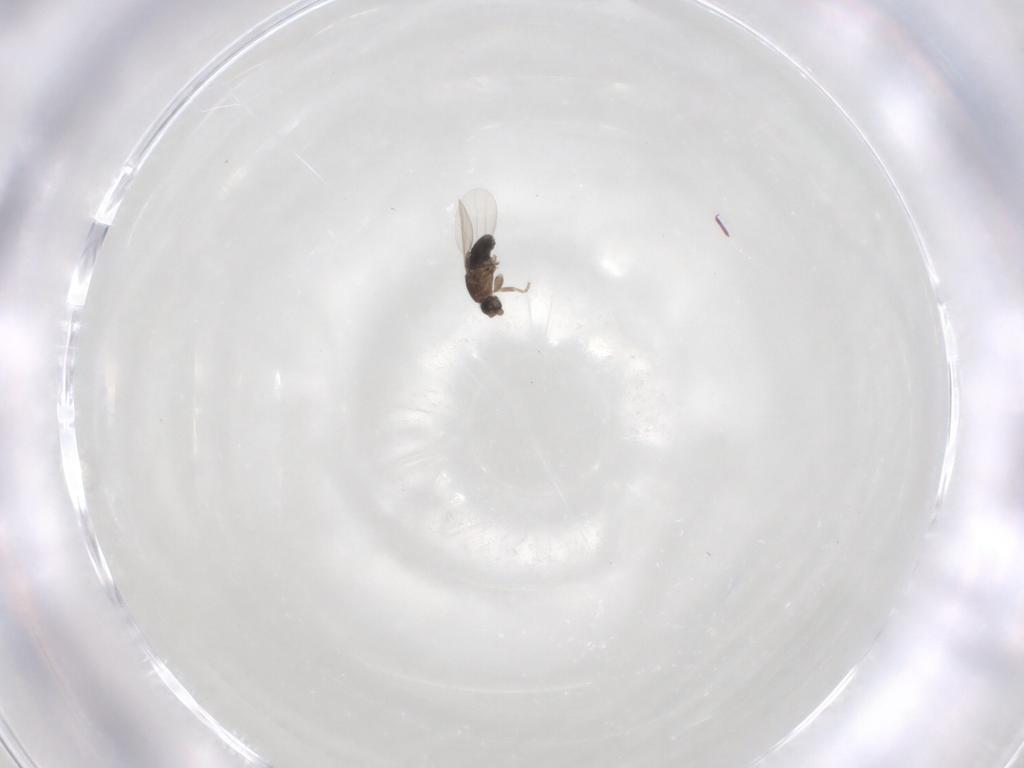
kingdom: Animalia
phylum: Arthropoda
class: Insecta
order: Diptera
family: Phoridae
